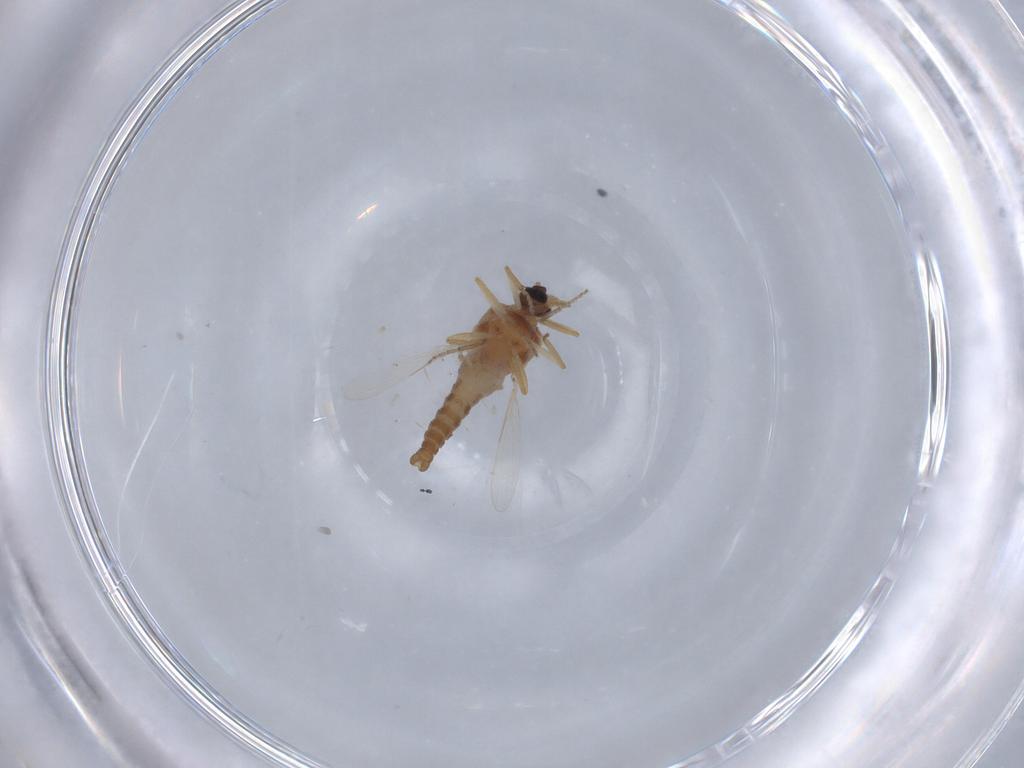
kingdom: Animalia
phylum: Arthropoda
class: Insecta
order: Diptera
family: Ceratopogonidae
